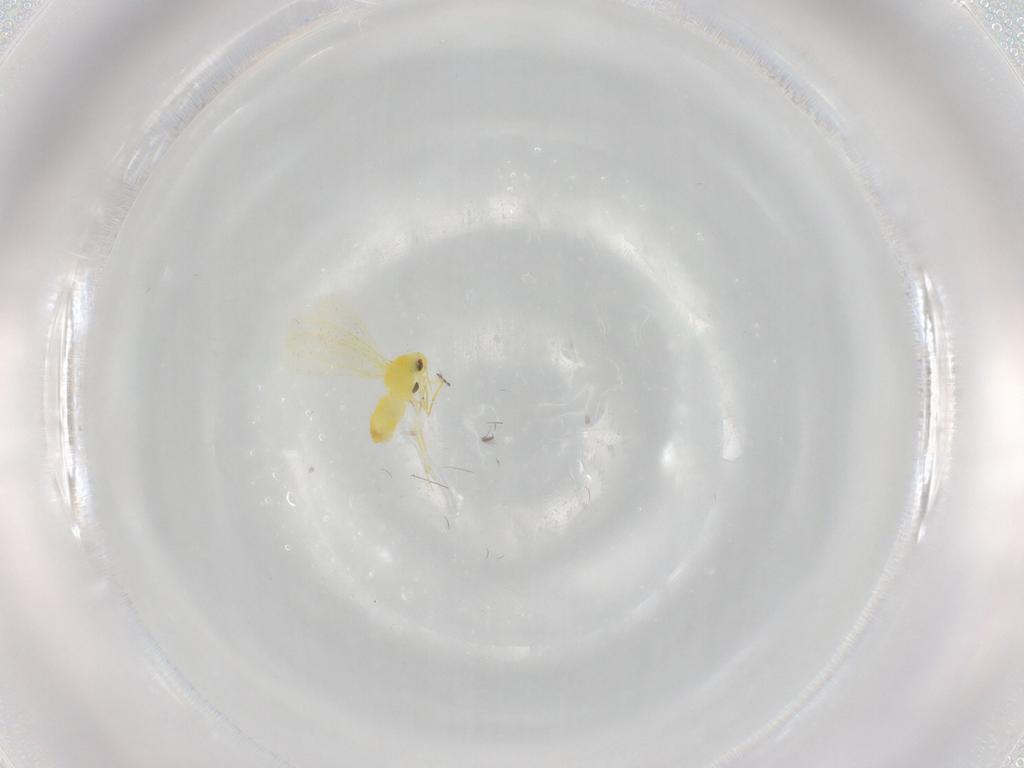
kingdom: Animalia
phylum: Arthropoda
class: Insecta
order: Hemiptera
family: Aleyrodidae
